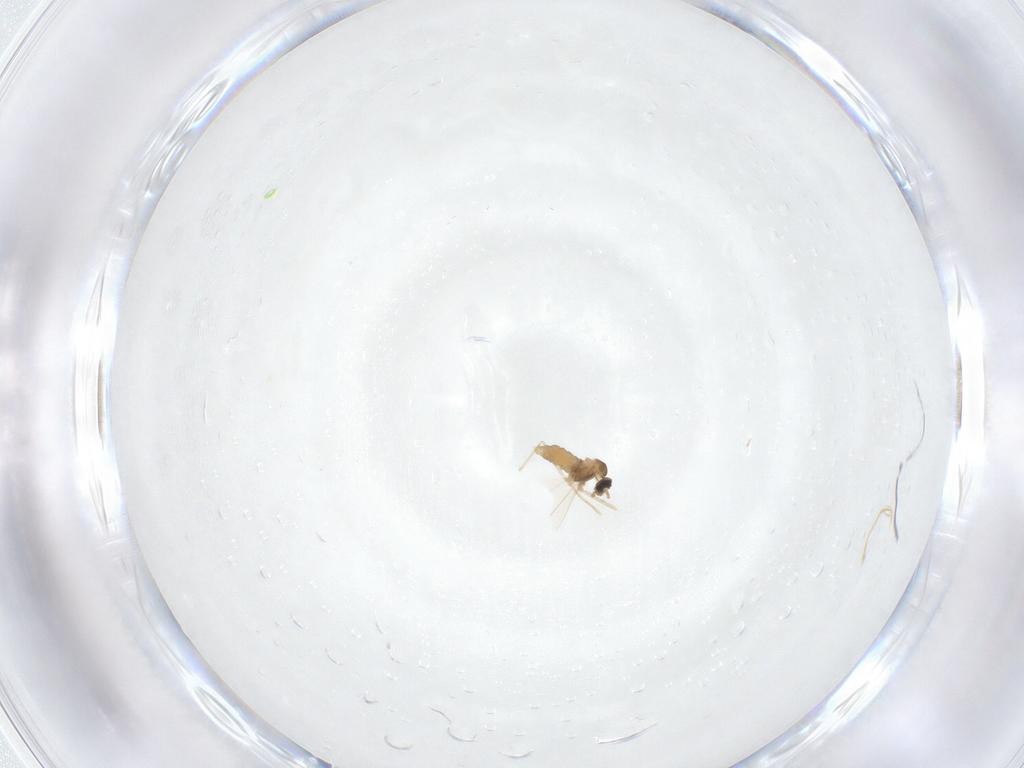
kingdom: Animalia
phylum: Arthropoda
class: Insecta
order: Diptera
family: Cecidomyiidae
